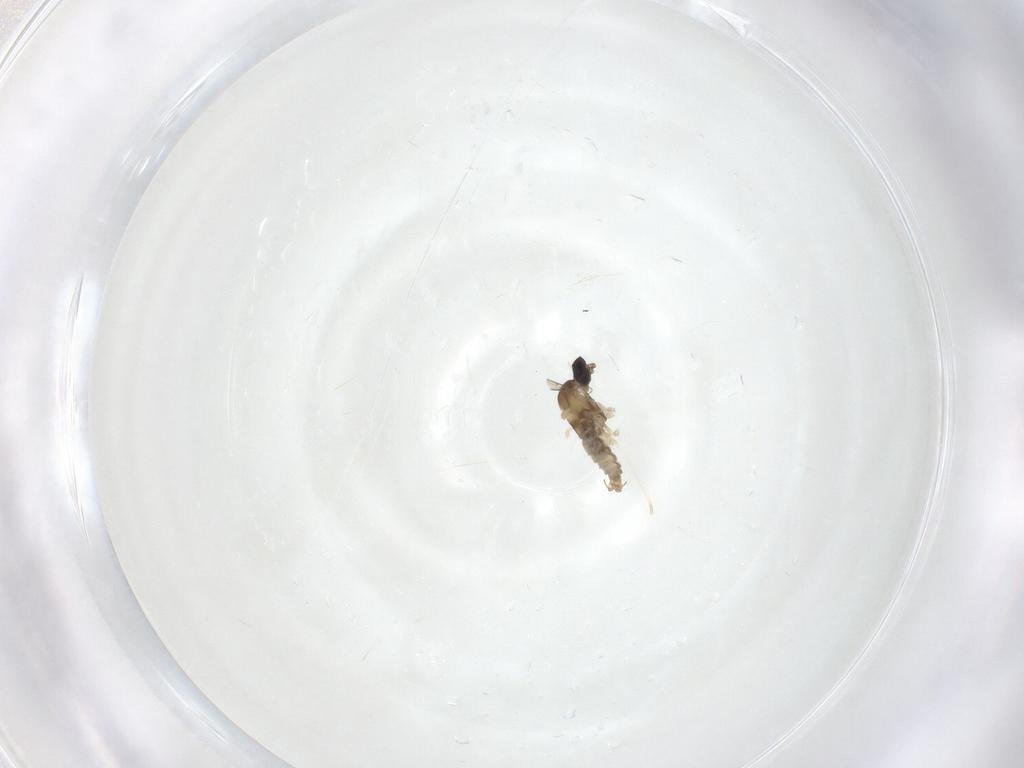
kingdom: Animalia
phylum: Arthropoda
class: Insecta
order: Diptera
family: Cecidomyiidae
